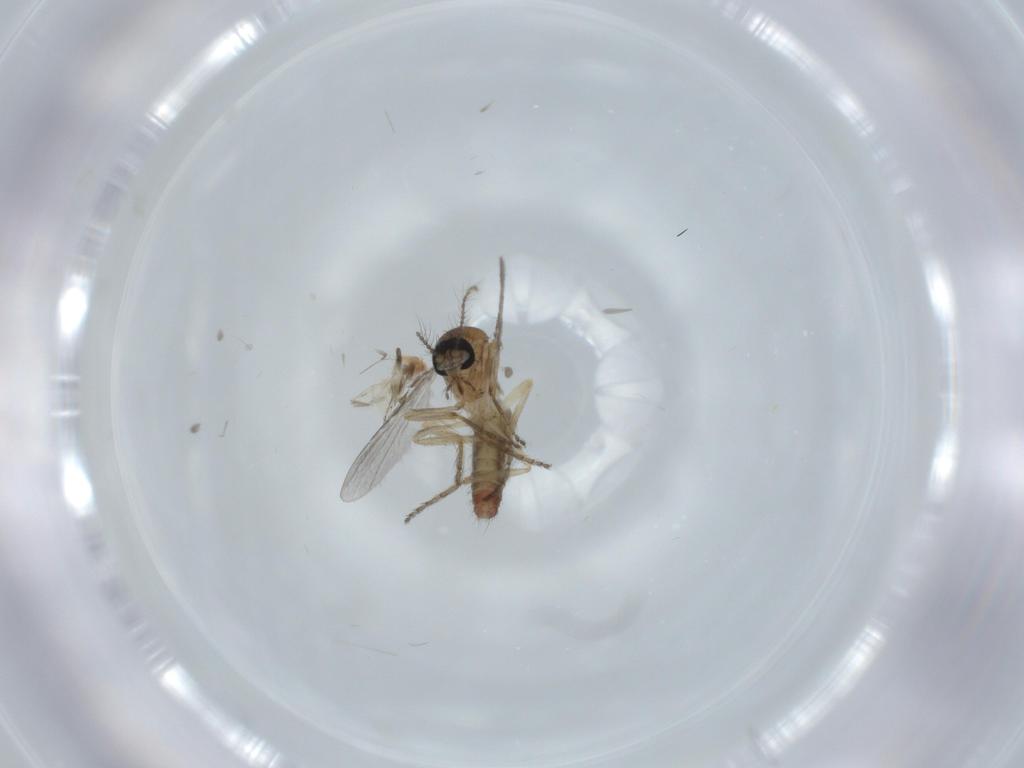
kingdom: Animalia
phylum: Arthropoda
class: Insecta
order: Diptera
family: Ceratopogonidae
